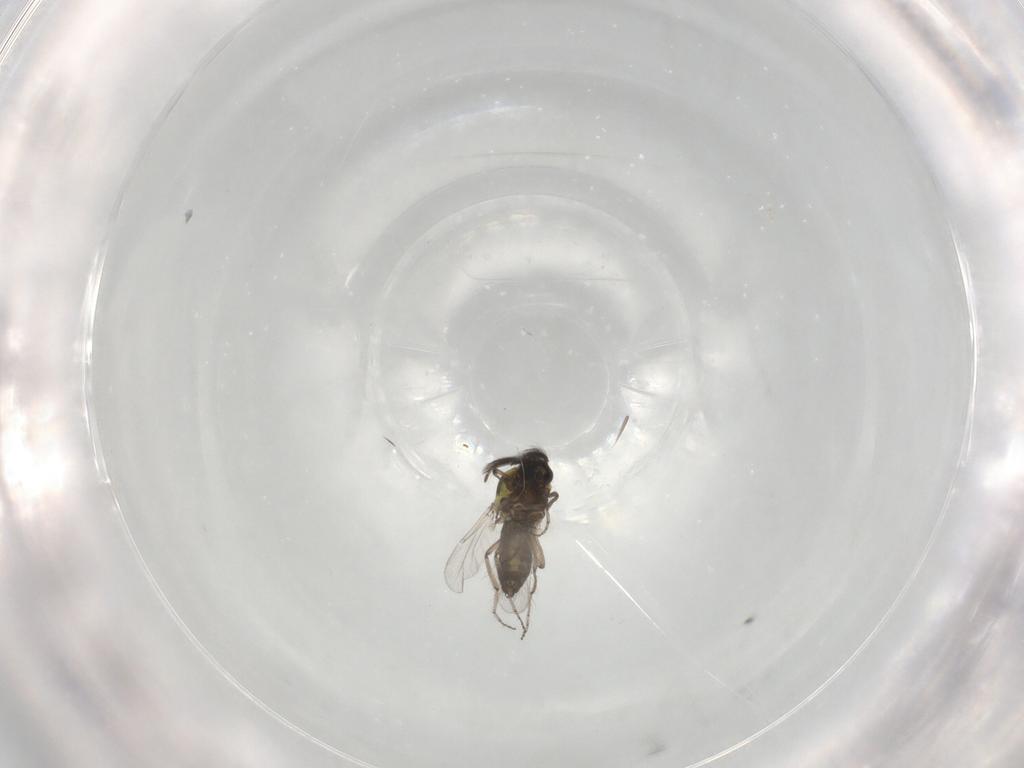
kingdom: Animalia
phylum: Arthropoda
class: Insecta
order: Diptera
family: Ceratopogonidae
